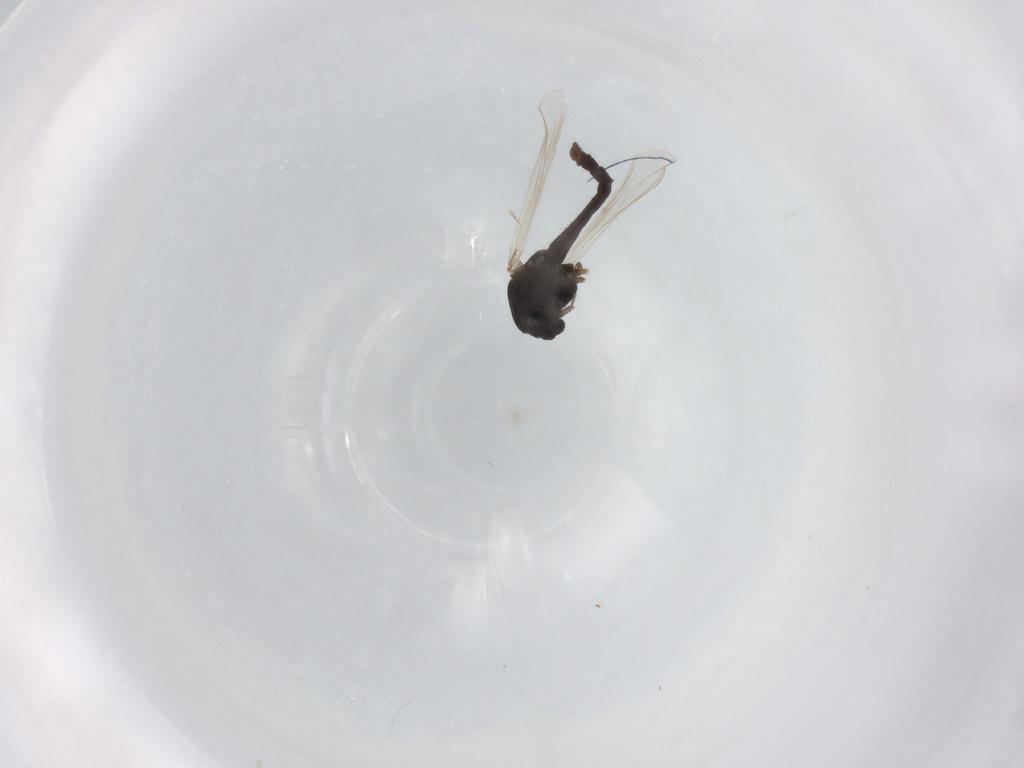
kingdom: Animalia
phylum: Arthropoda
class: Insecta
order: Diptera
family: Chironomidae
